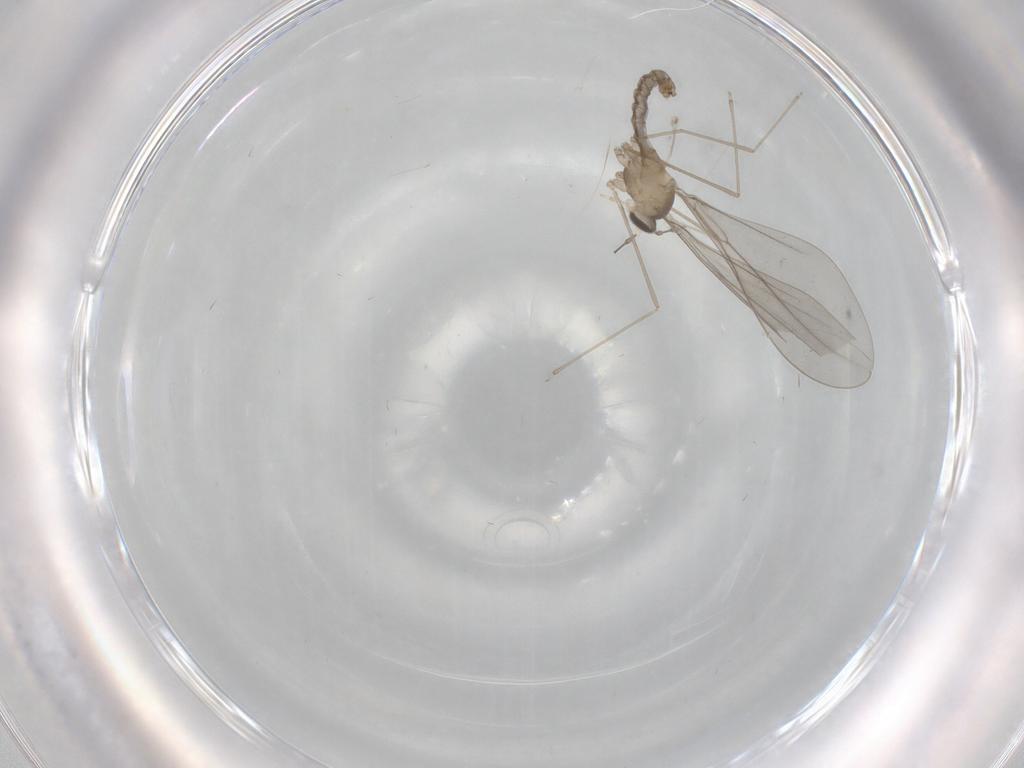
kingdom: Animalia
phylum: Arthropoda
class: Insecta
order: Diptera
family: Cecidomyiidae
